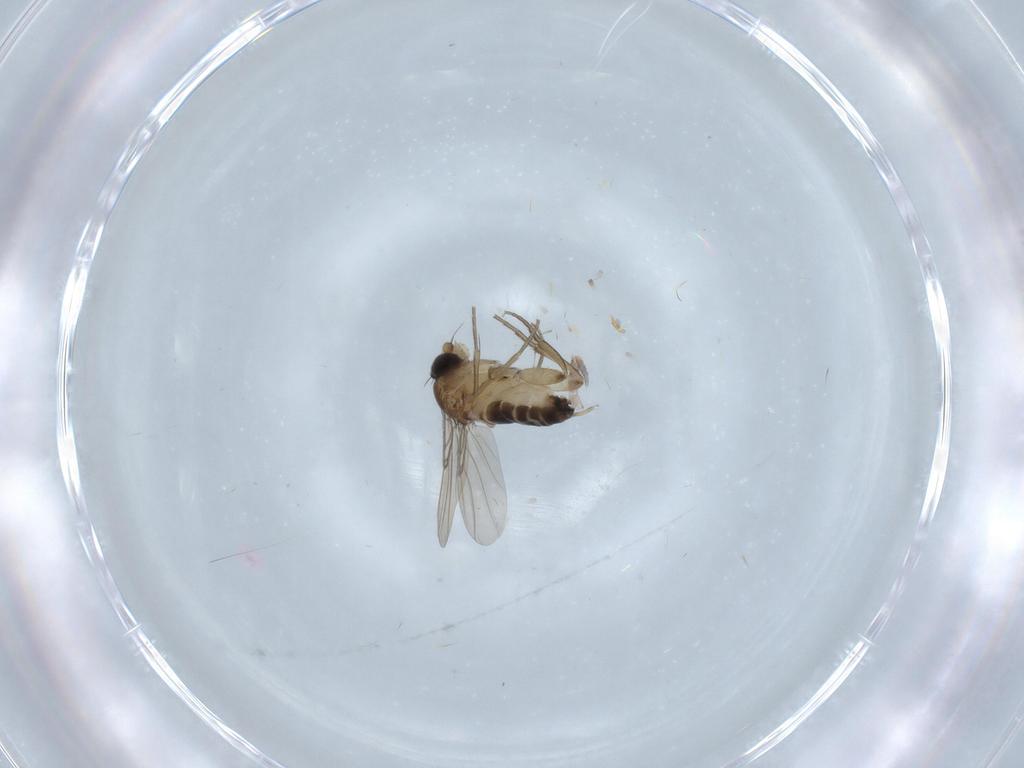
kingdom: Animalia
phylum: Arthropoda
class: Insecta
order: Diptera
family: Phoridae
